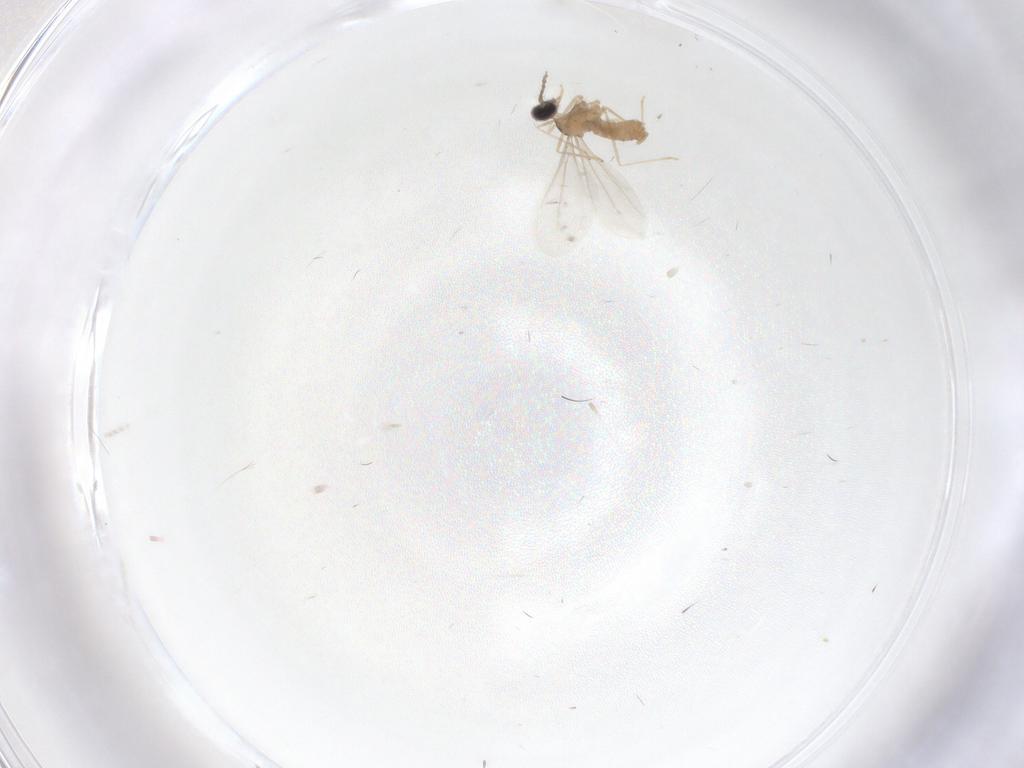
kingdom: Animalia
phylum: Arthropoda
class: Insecta
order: Diptera
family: Cecidomyiidae
